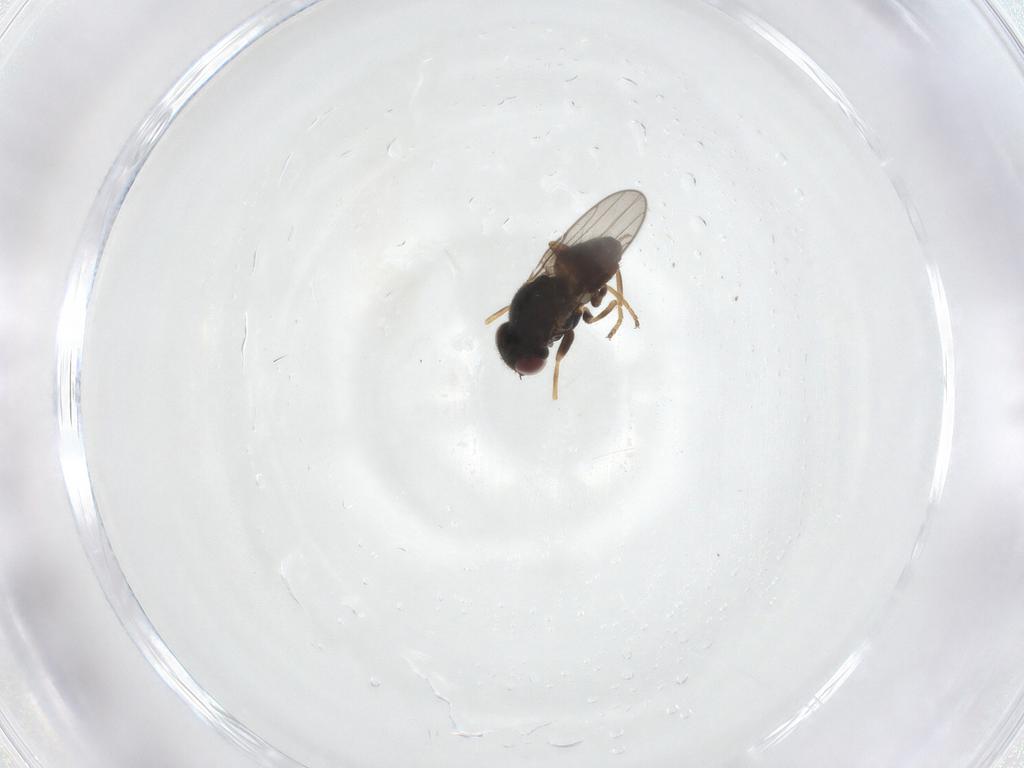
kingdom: Animalia
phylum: Arthropoda
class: Insecta
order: Diptera
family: Chloropidae
